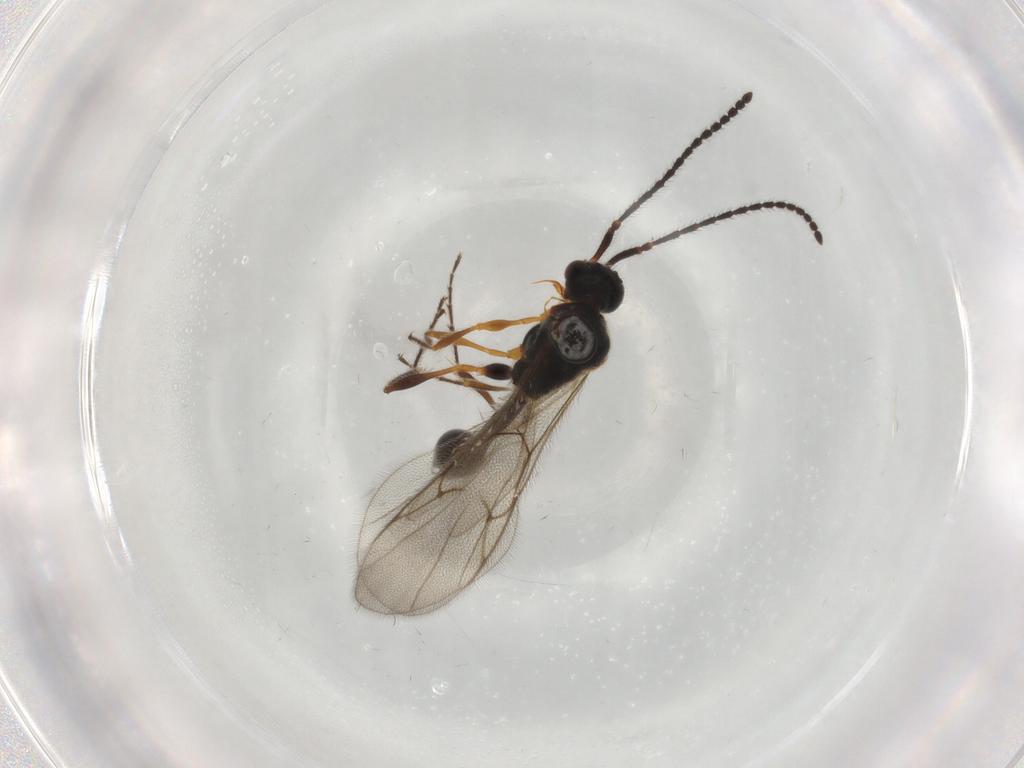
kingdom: Animalia
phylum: Arthropoda
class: Insecta
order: Hymenoptera
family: Diapriidae
